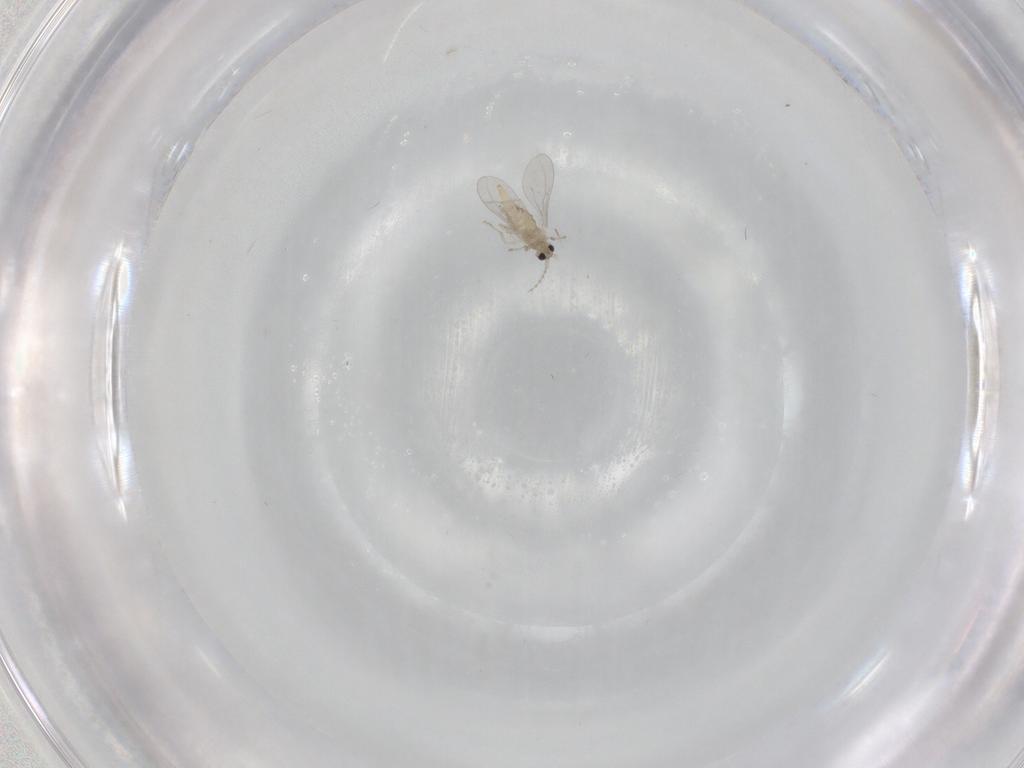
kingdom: Animalia
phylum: Arthropoda
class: Insecta
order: Diptera
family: Cecidomyiidae
